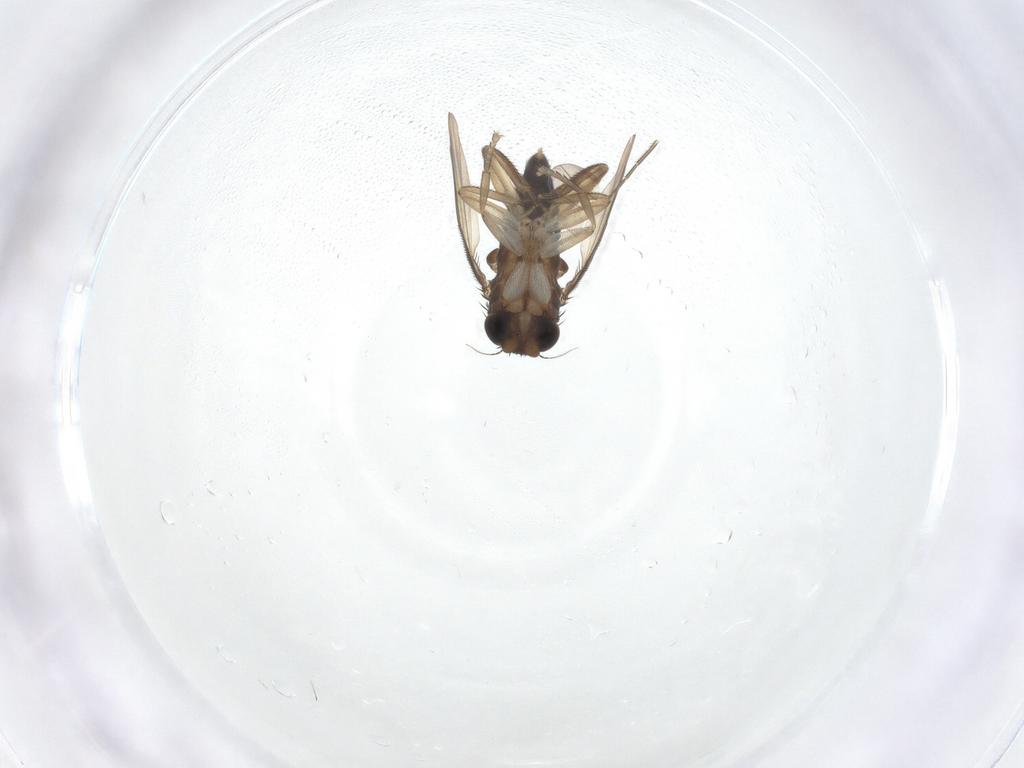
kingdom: Animalia
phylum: Arthropoda
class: Insecta
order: Diptera
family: Phoridae
